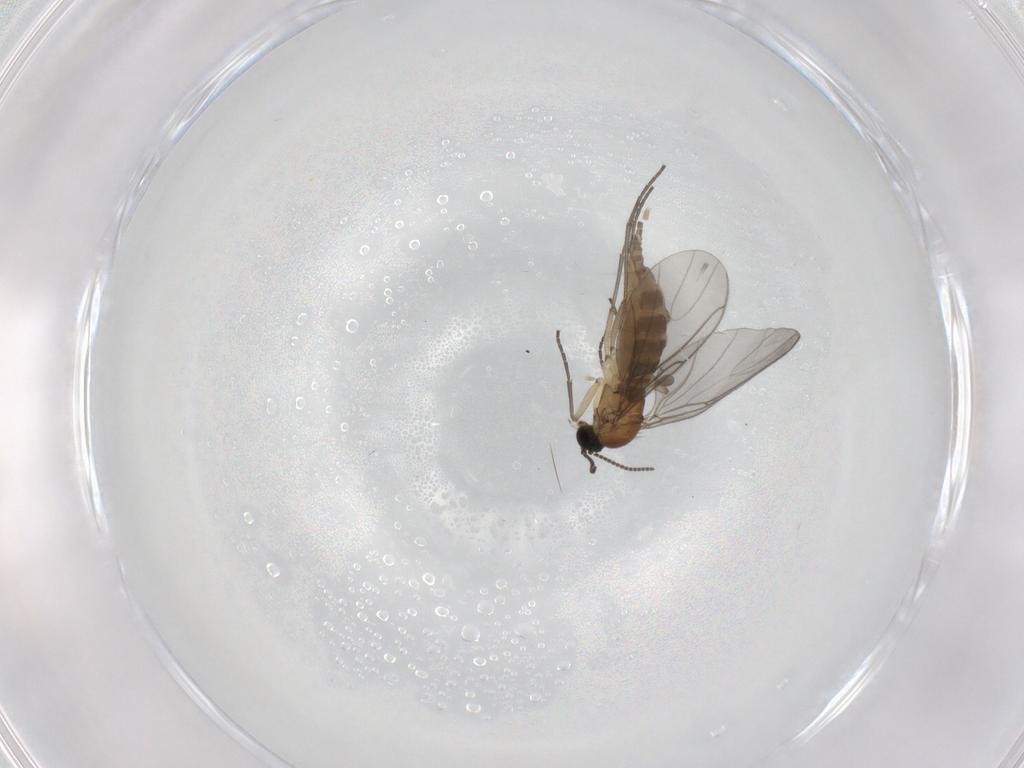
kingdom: Animalia
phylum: Arthropoda
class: Insecta
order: Diptera
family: Sciaridae
